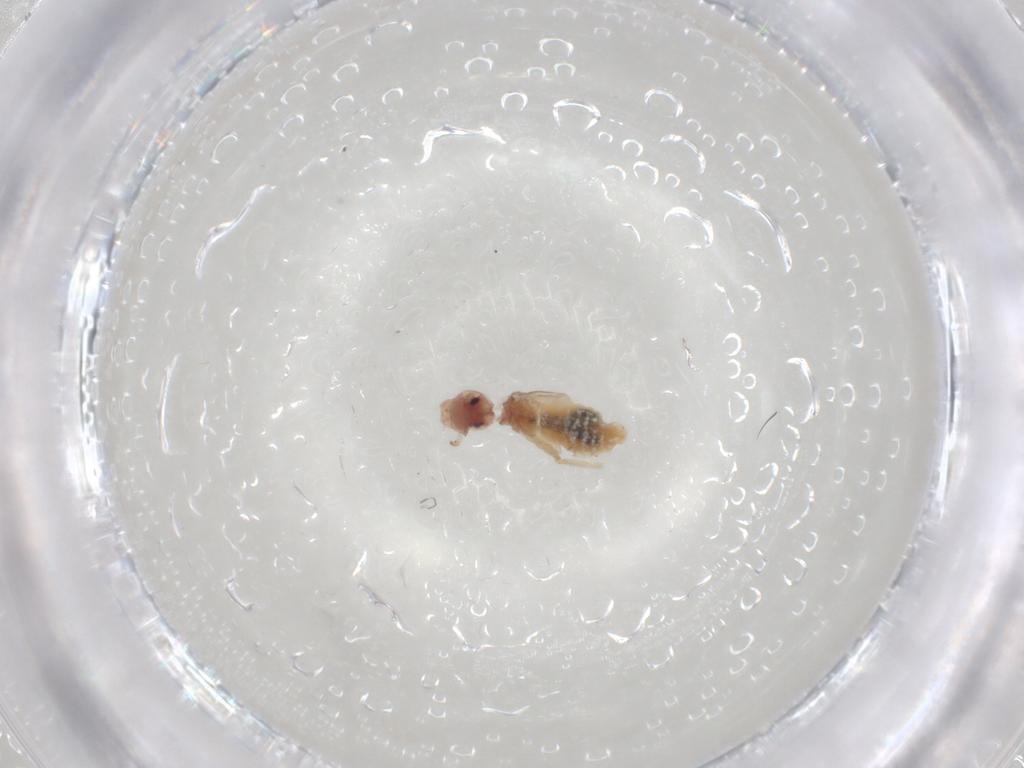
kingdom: Animalia
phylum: Arthropoda
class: Insecta
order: Psocodea
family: Caeciliusidae
